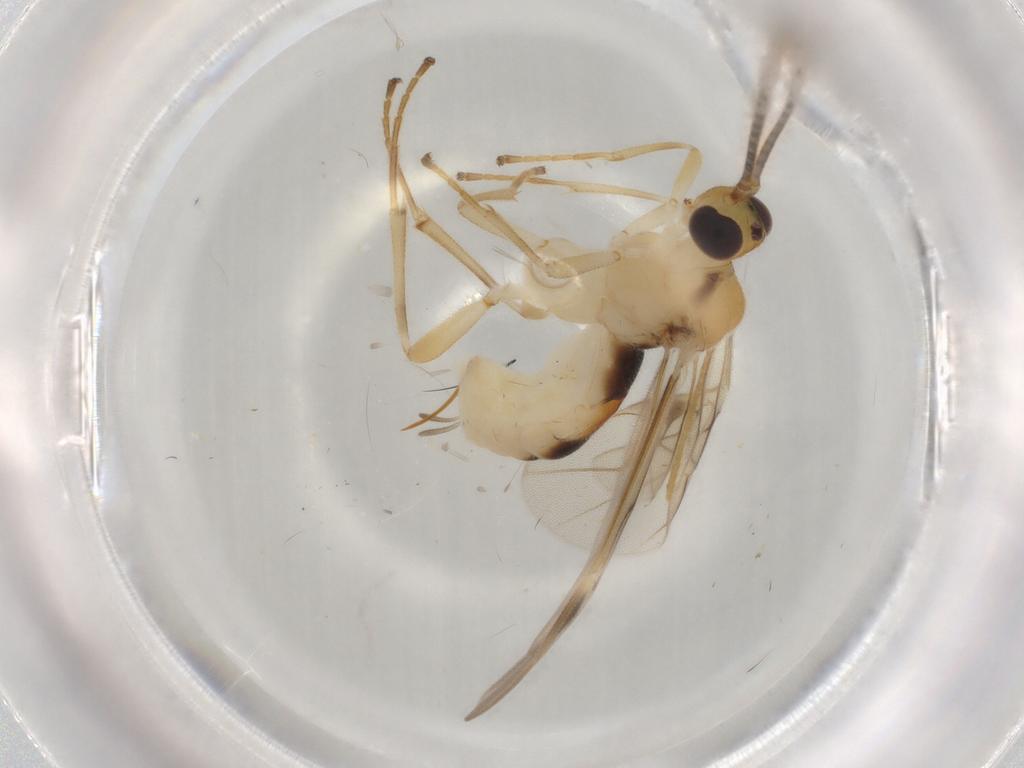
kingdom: Animalia
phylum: Arthropoda
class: Insecta
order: Hymenoptera
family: Braconidae
